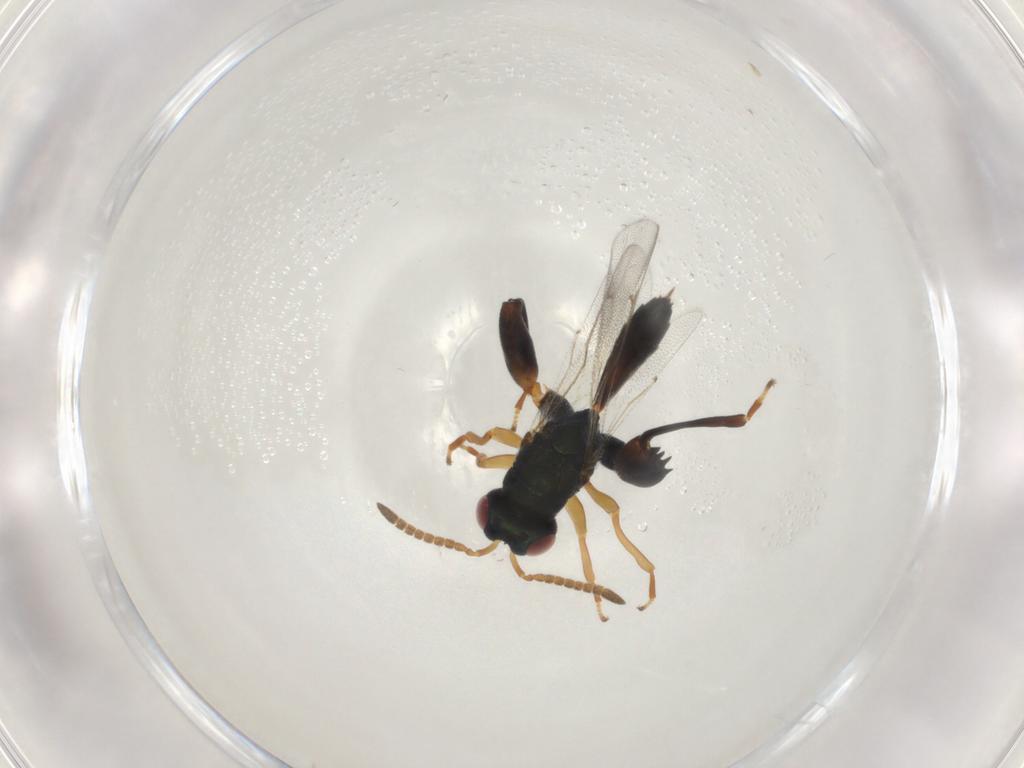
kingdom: Animalia
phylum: Arthropoda
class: Insecta
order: Hymenoptera
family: Torymidae
